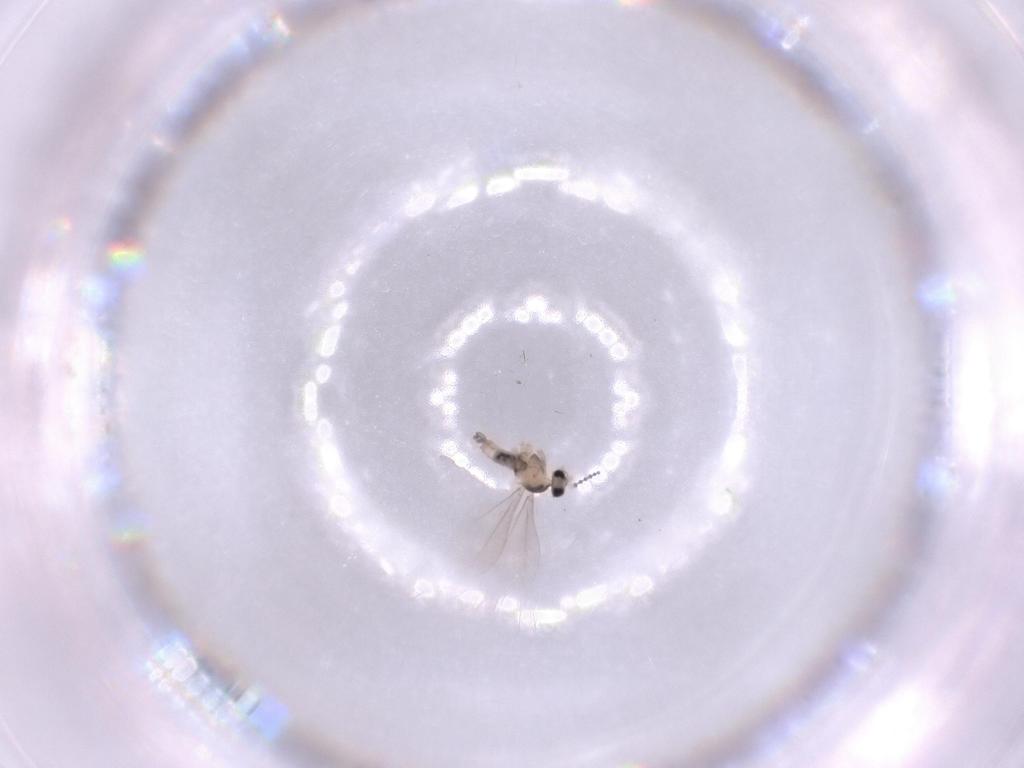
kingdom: Animalia
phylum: Arthropoda
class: Insecta
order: Diptera
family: Cecidomyiidae
